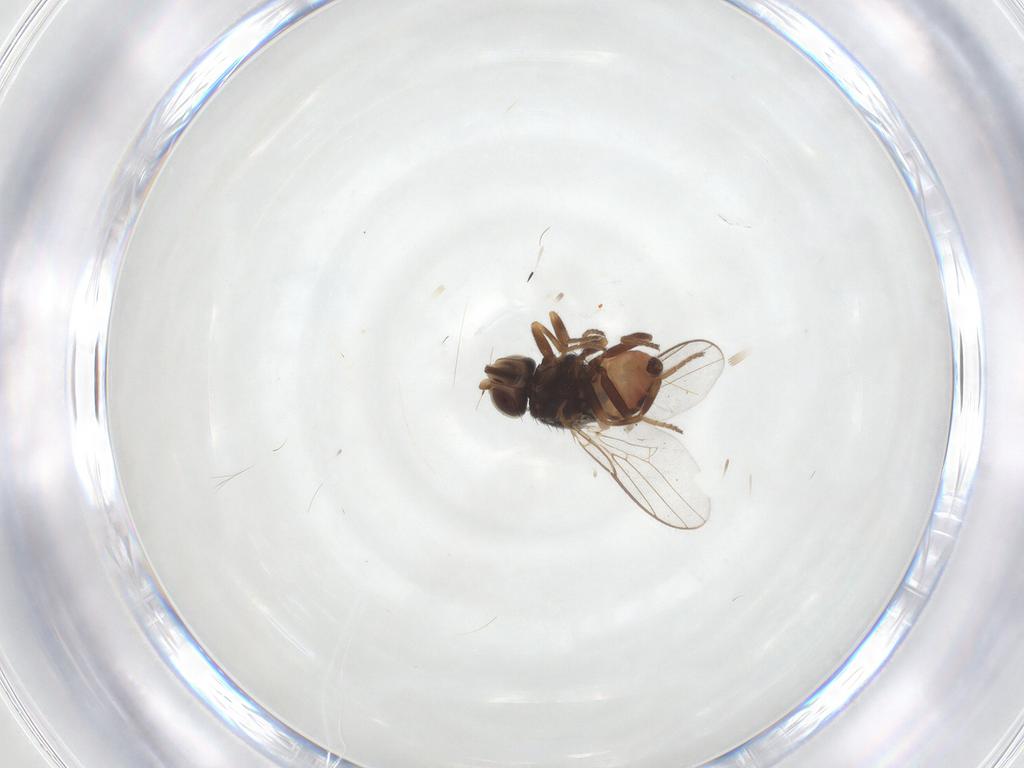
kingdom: Animalia
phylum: Arthropoda
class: Insecta
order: Diptera
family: Chloropidae
